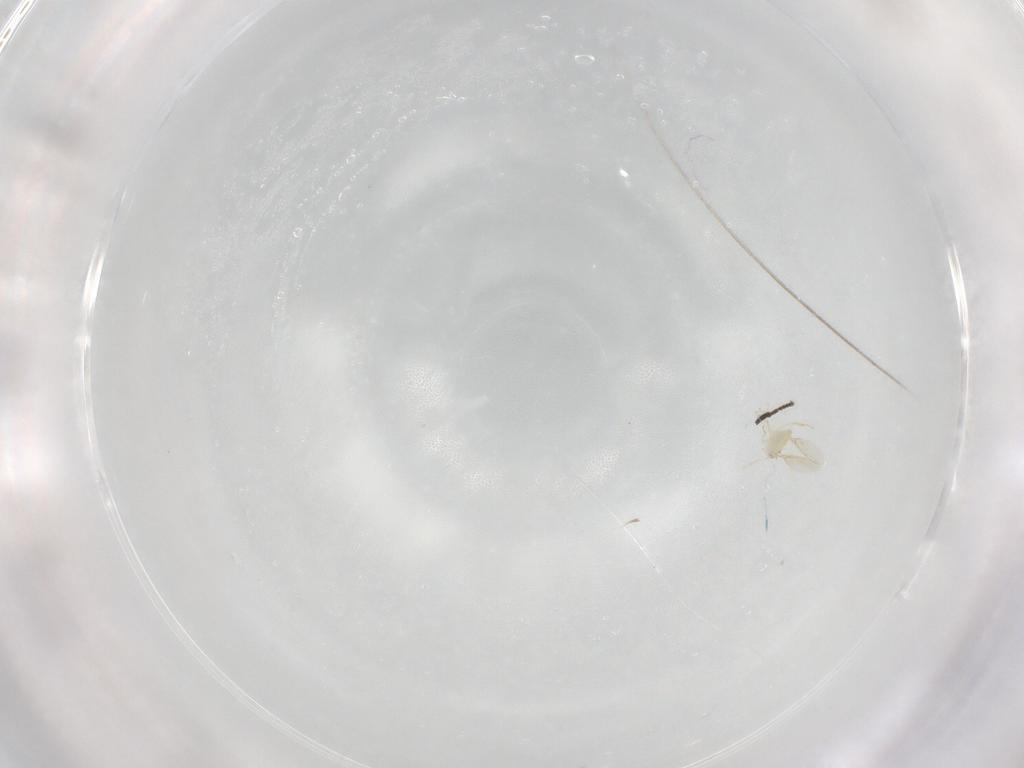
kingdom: Animalia
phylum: Arthropoda
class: Insecta
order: Hymenoptera
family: Aphelinidae
